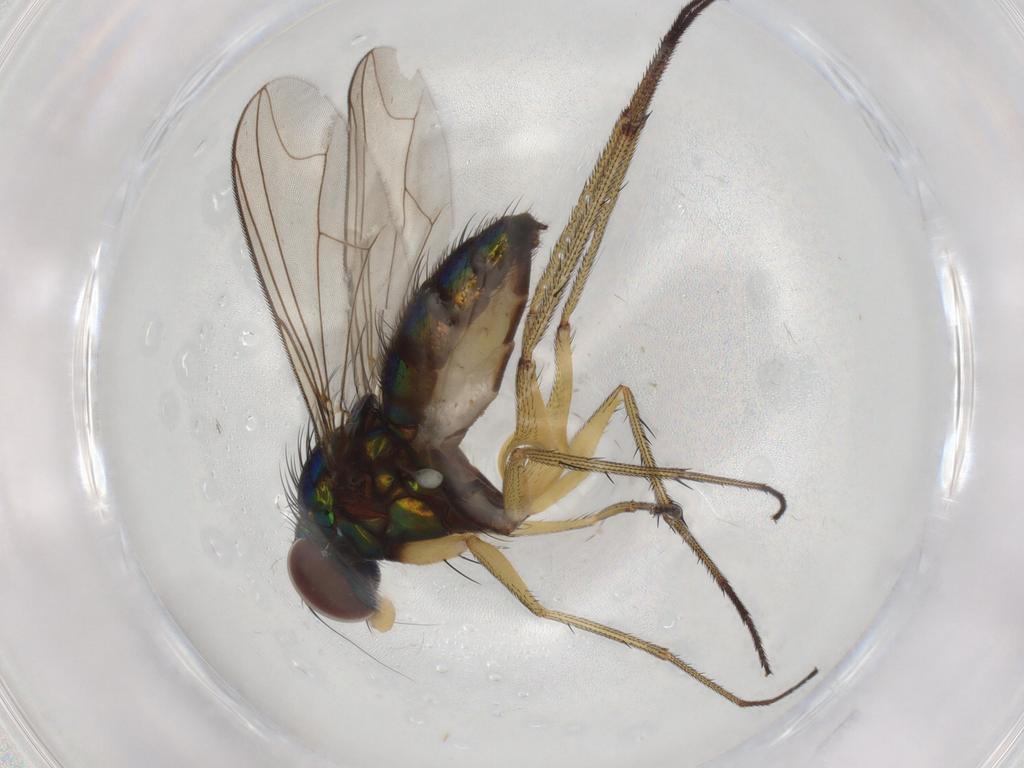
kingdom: Animalia
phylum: Arthropoda
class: Insecta
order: Diptera
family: Dolichopodidae
